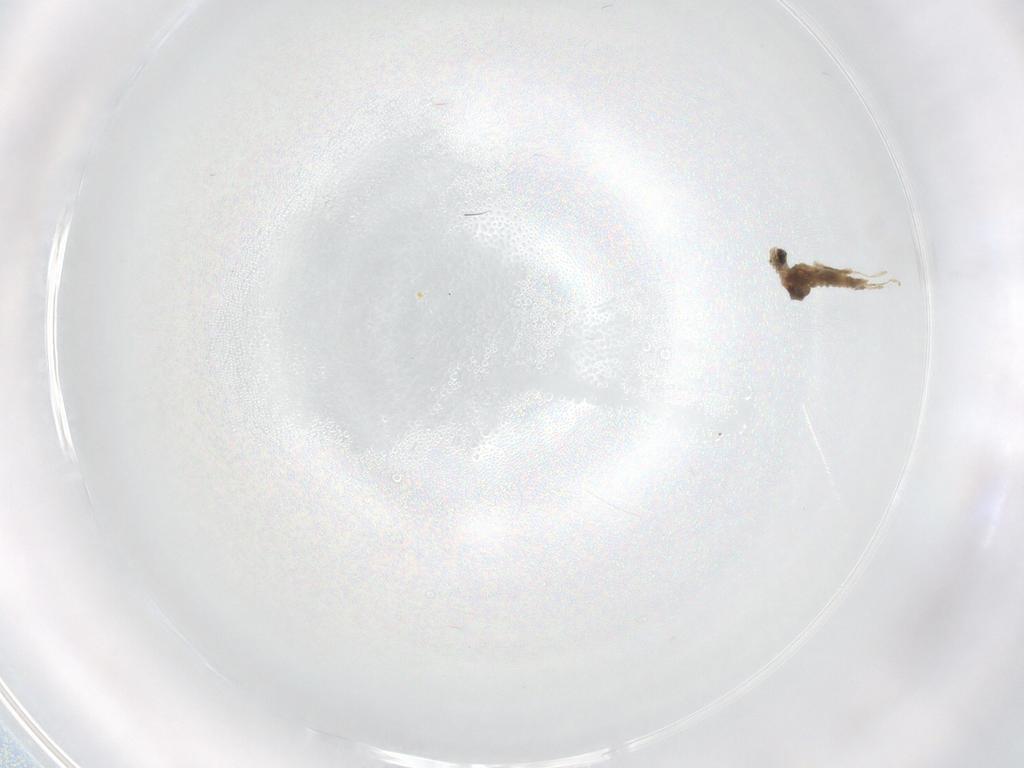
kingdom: Animalia
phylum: Arthropoda
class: Insecta
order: Diptera
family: Cecidomyiidae
